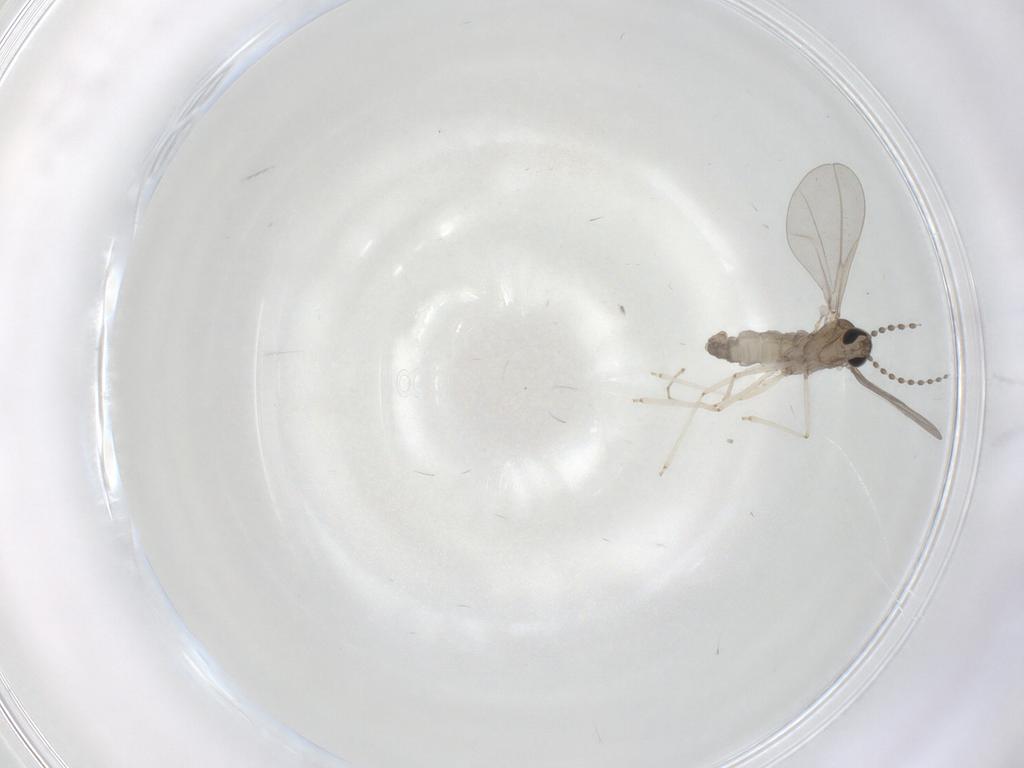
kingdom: Animalia
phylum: Arthropoda
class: Insecta
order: Diptera
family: Cecidomyiidae
